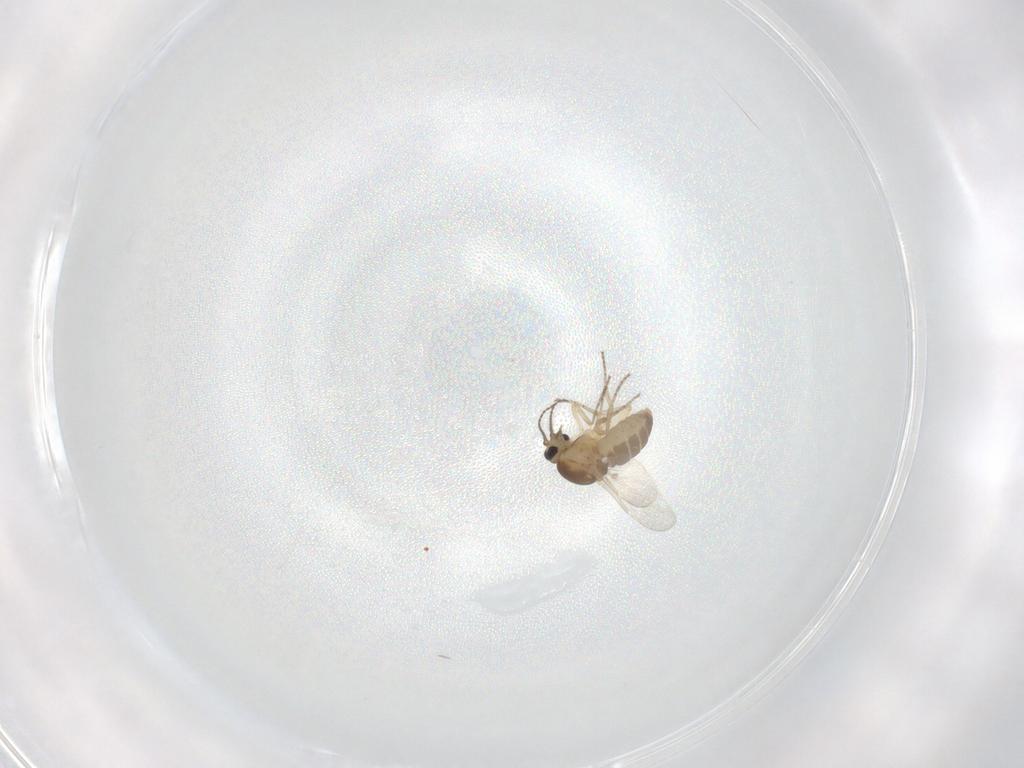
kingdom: Animalia
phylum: Arthropoda
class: Insecta
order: Diptera
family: Ceratopogonidae
